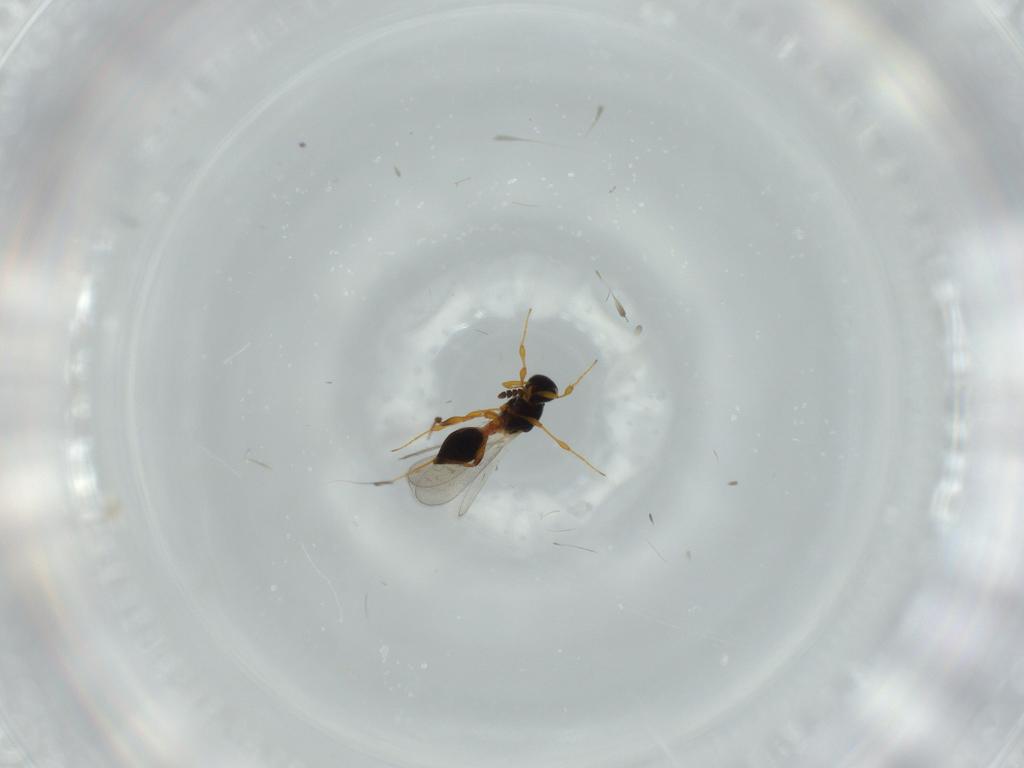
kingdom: Animalia
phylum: Arthropoda
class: Insecta
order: Hymenoptera
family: Platygastridae
